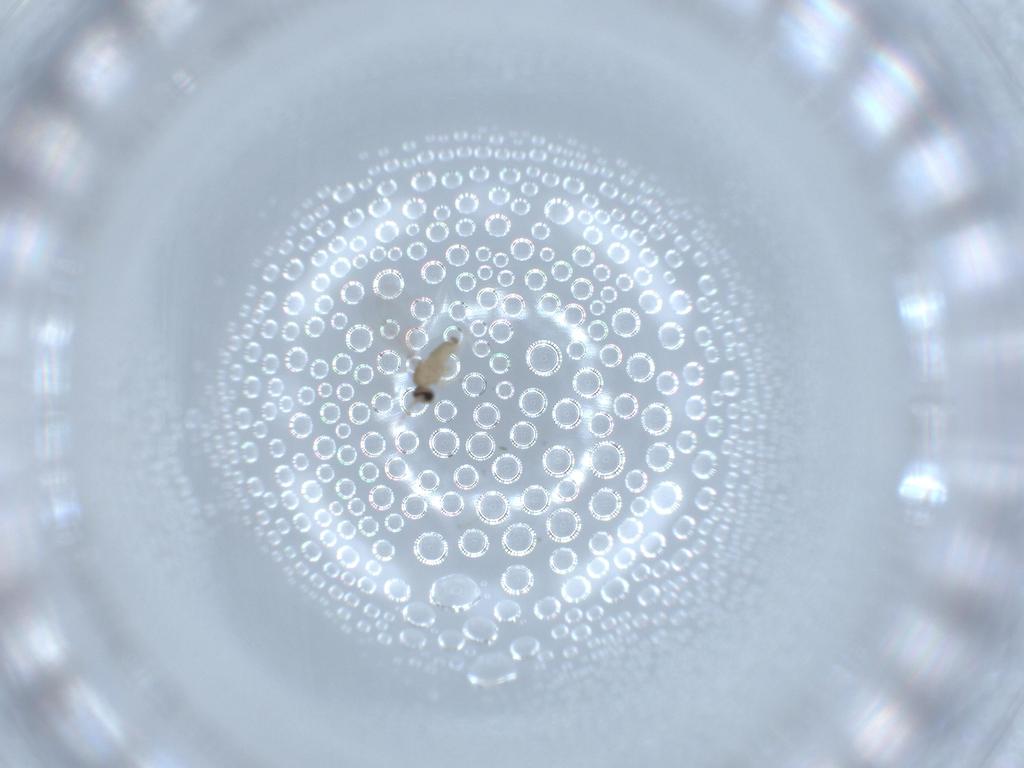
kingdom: Animalia
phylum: Arthropoda
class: Insecta
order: Diptera
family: Cecidomyiidae
